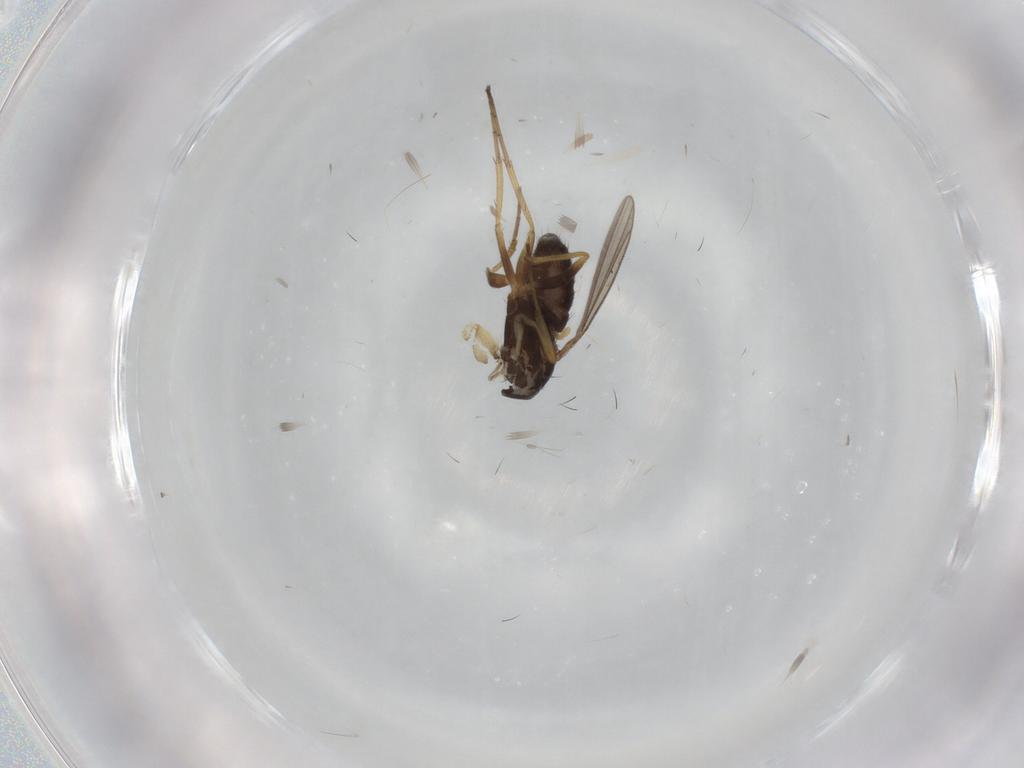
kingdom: Animalia
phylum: Arthropoda
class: Insecta
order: Diptera
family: Dolichopodidae
